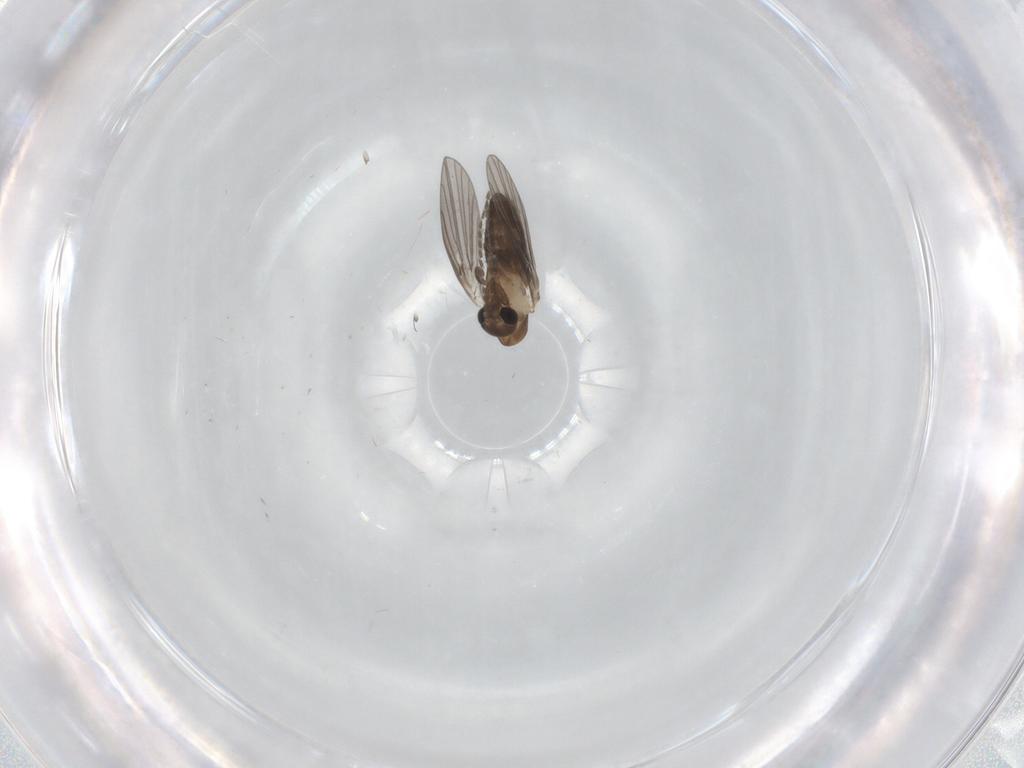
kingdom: Animalia
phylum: Arthropoda
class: Insecta
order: Diptera
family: Psychodidae
